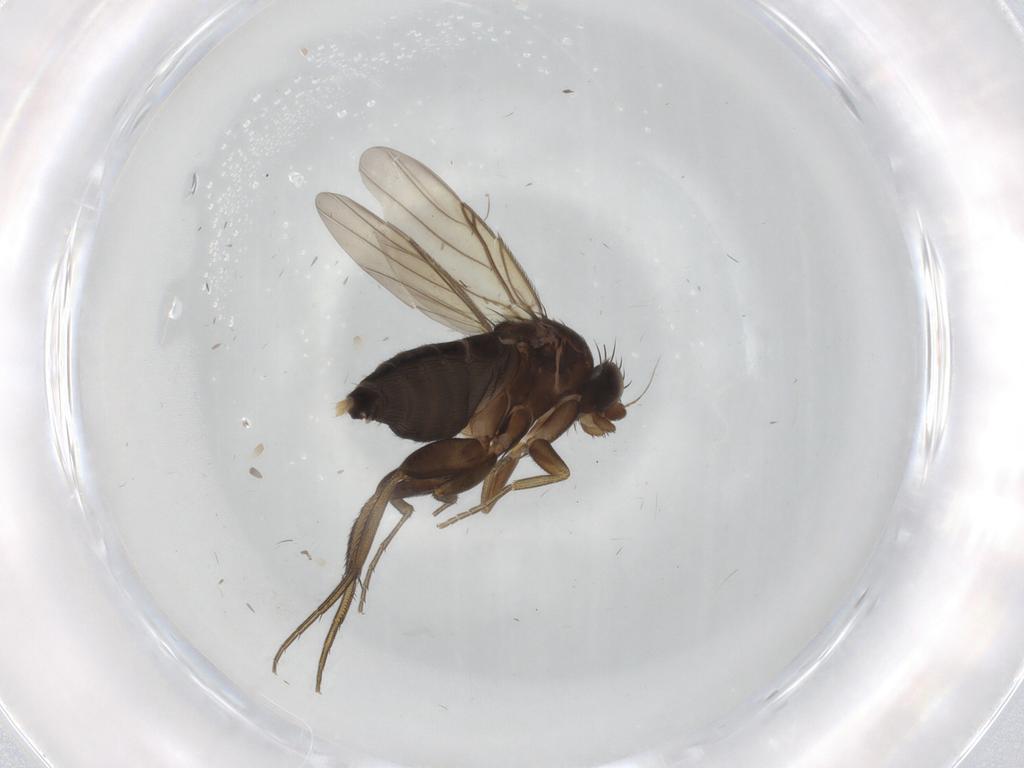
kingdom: Animalia
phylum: Arthropoda
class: Insecta
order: Diptera
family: Phoridae
